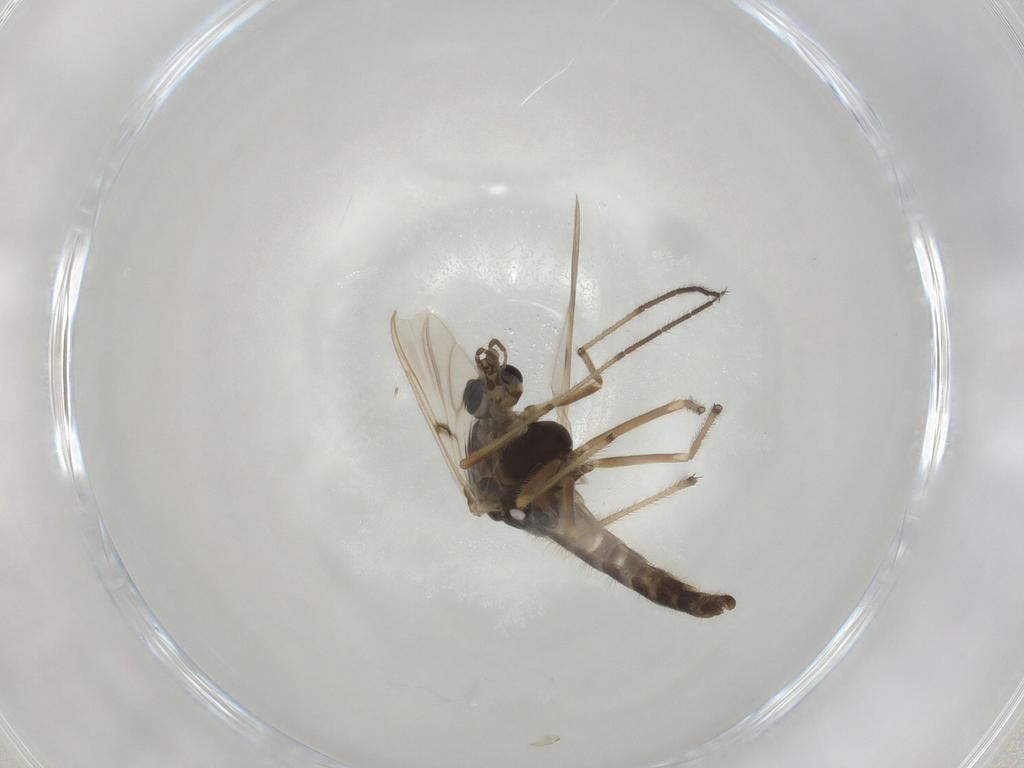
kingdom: Animalia
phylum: Arthropoda
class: Insecta
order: Diptera
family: Chironomidae
